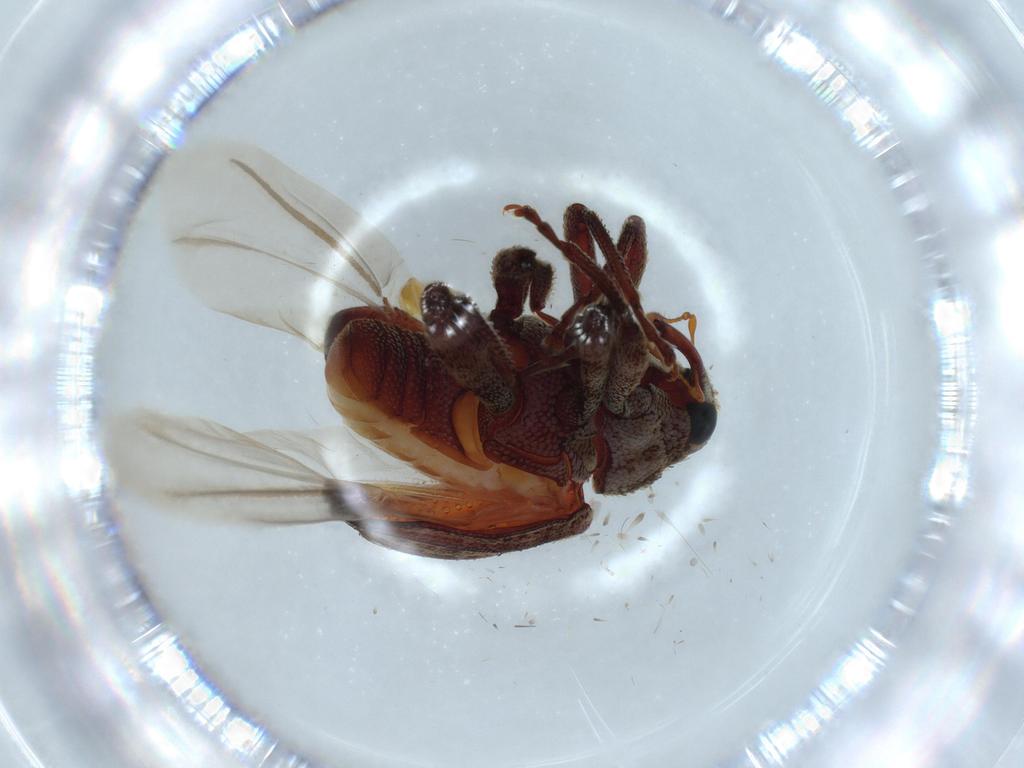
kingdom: Animalia
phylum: Arthropoda
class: Insecta
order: Coleoptera
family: Curculionidae
